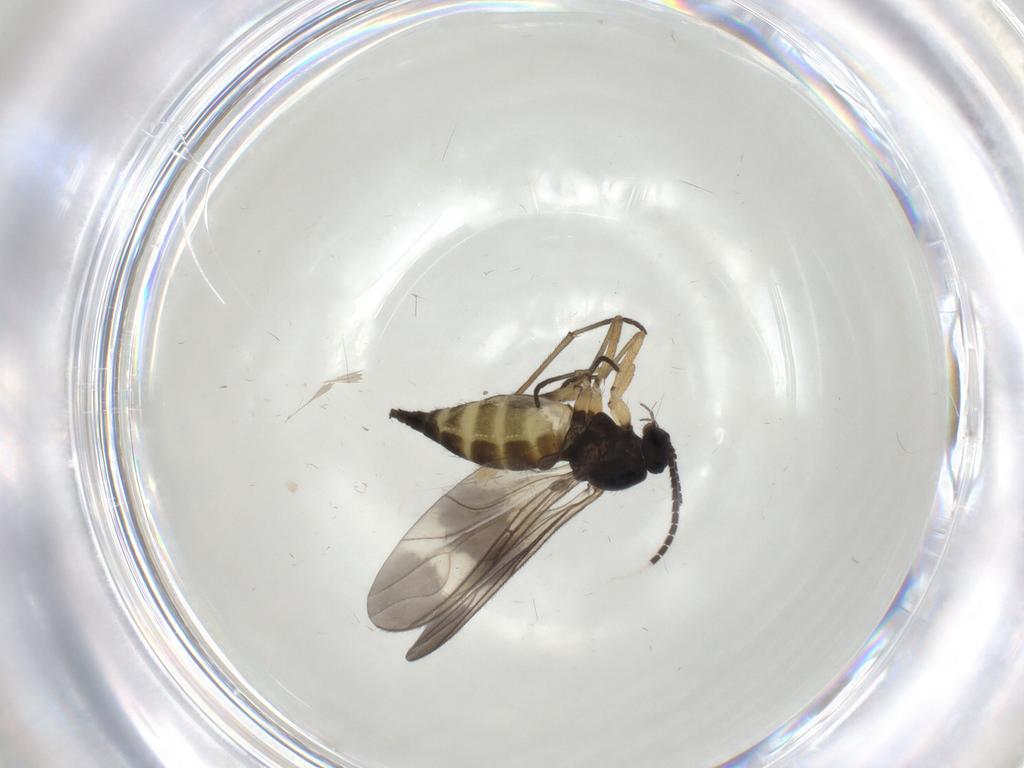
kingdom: Animalia
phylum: Arthropoda
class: Insecta
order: Diptera
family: Sciaridae
